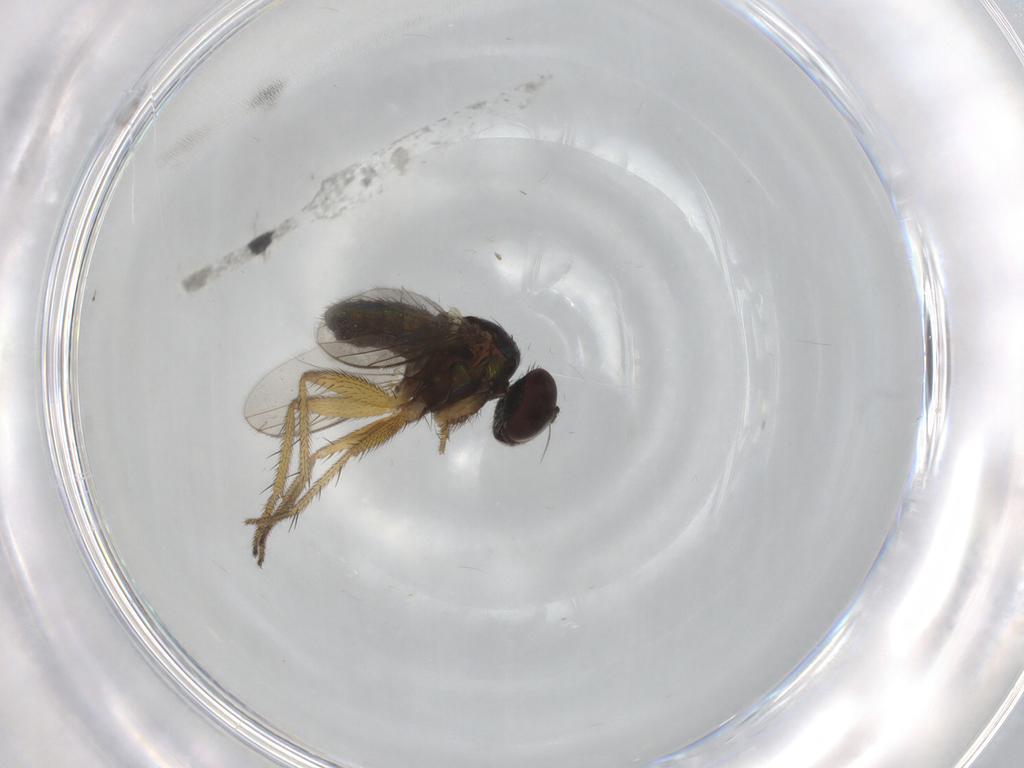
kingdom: Animalia
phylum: Arthropoda
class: Insecta
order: Diptera
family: Dolichopodidae
